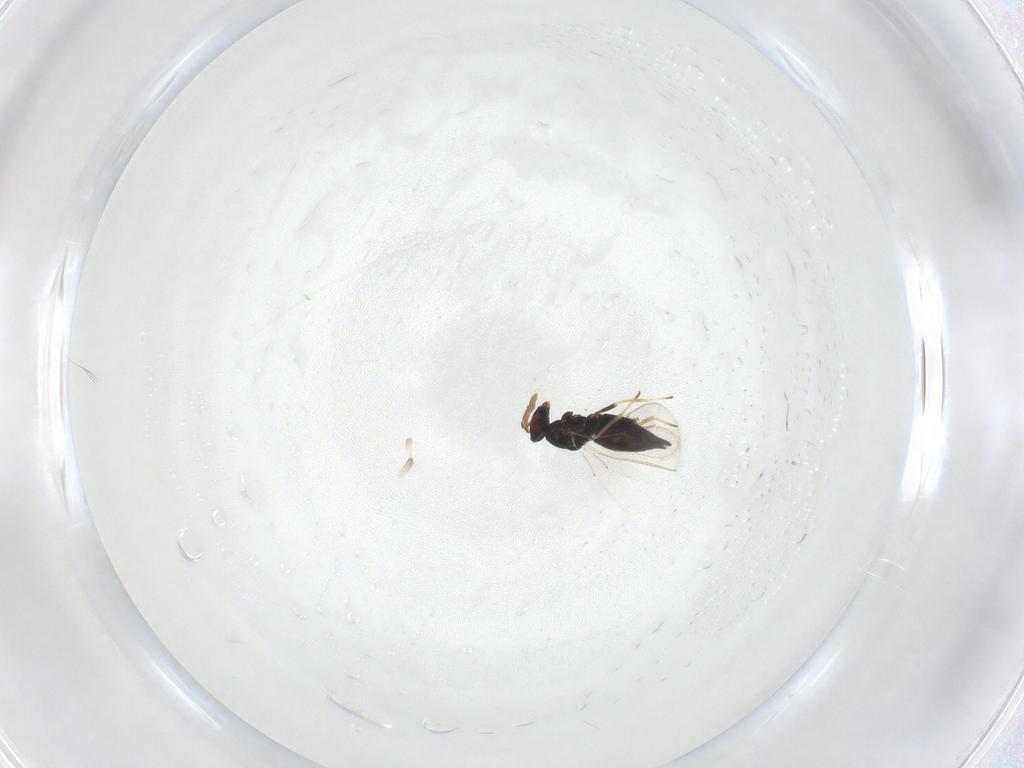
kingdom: Animalia
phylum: Arthropoda
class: Insecta
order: Hymenoptera
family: Eulophidae
